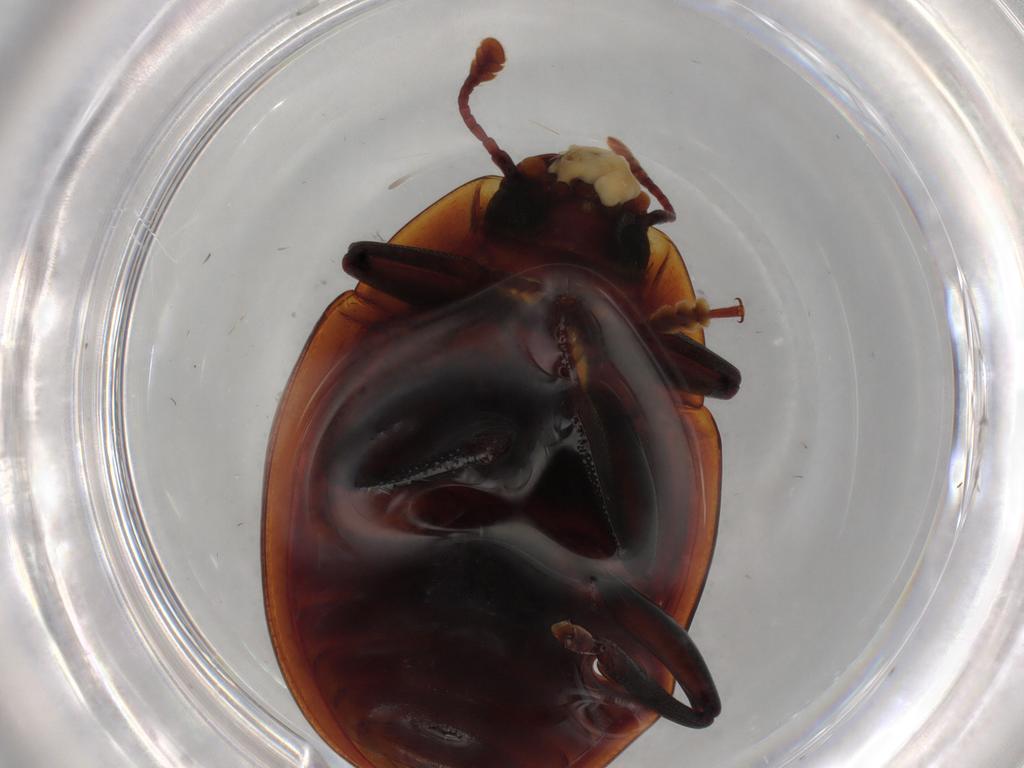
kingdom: Animalia
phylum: Arthropoda
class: Insecta
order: Coleoptera
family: Zopheridae
